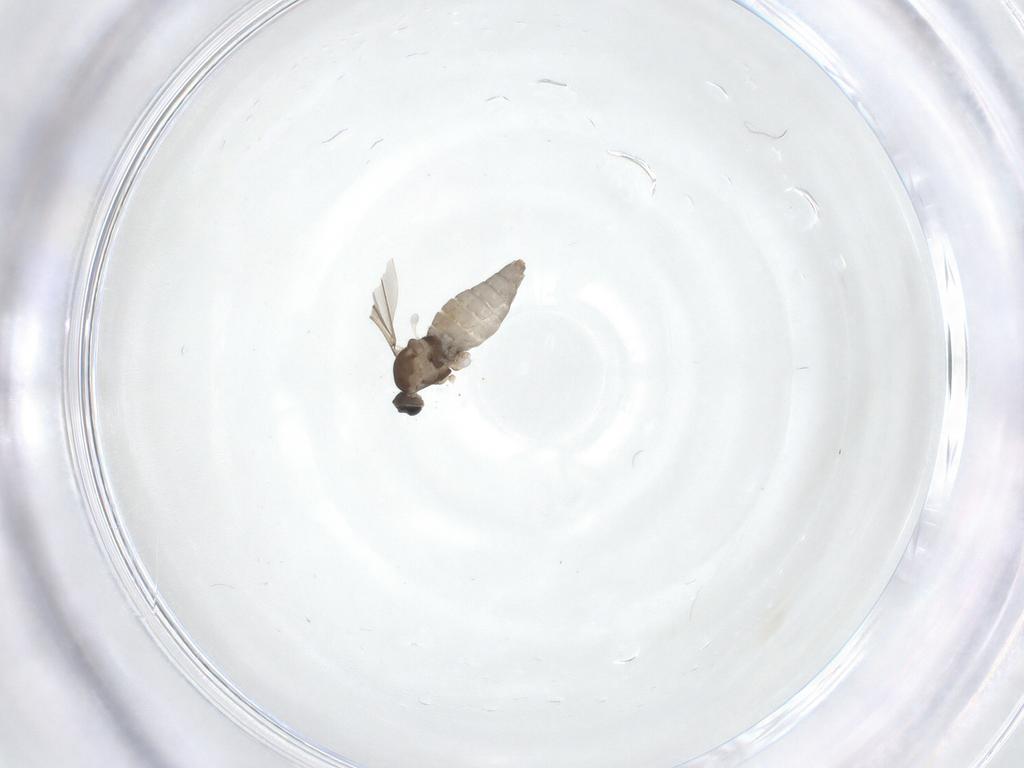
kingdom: Animalia
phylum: Arthropoda
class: Insecta
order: Diptera
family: Cecidomyiidae
